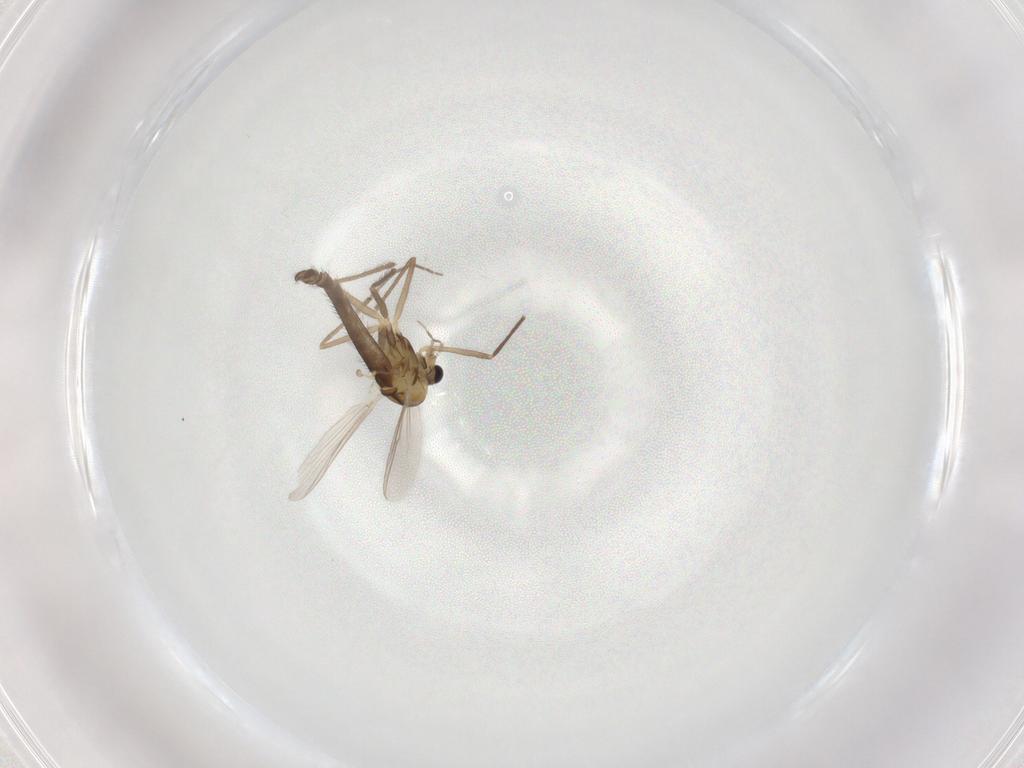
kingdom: Animalia
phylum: Arthropoda
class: Insecta
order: Diptera
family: Chironomidae
